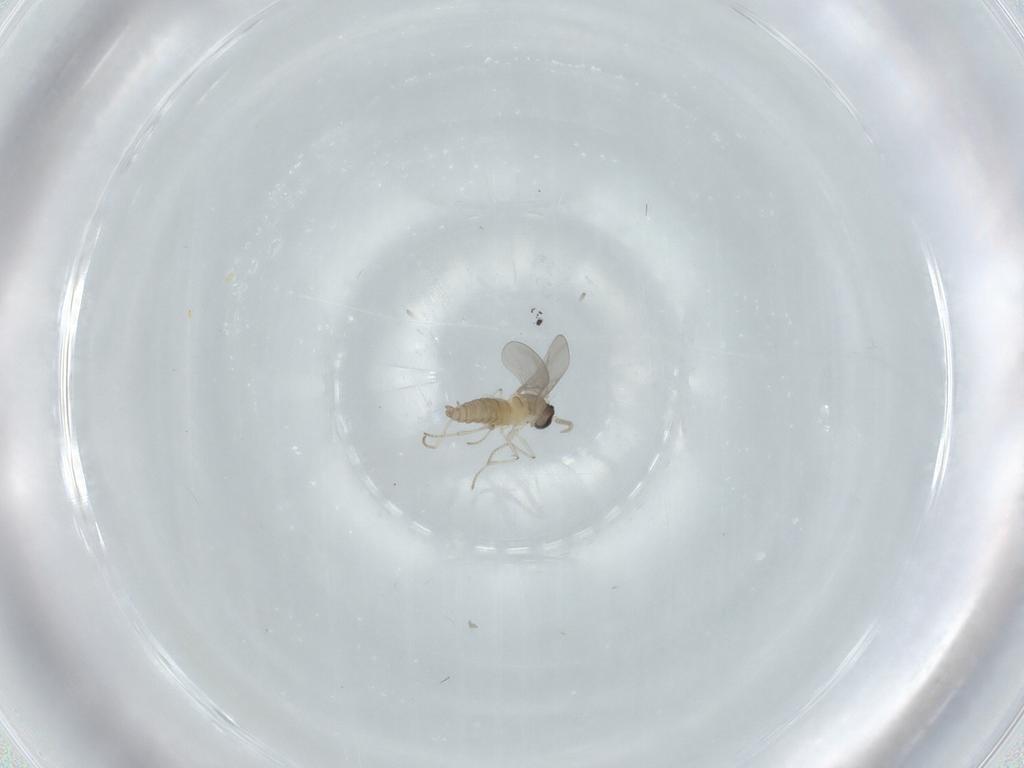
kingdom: Animalia
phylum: Arthropoda
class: Insecta
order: Diptera
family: Cecidomyiidae
